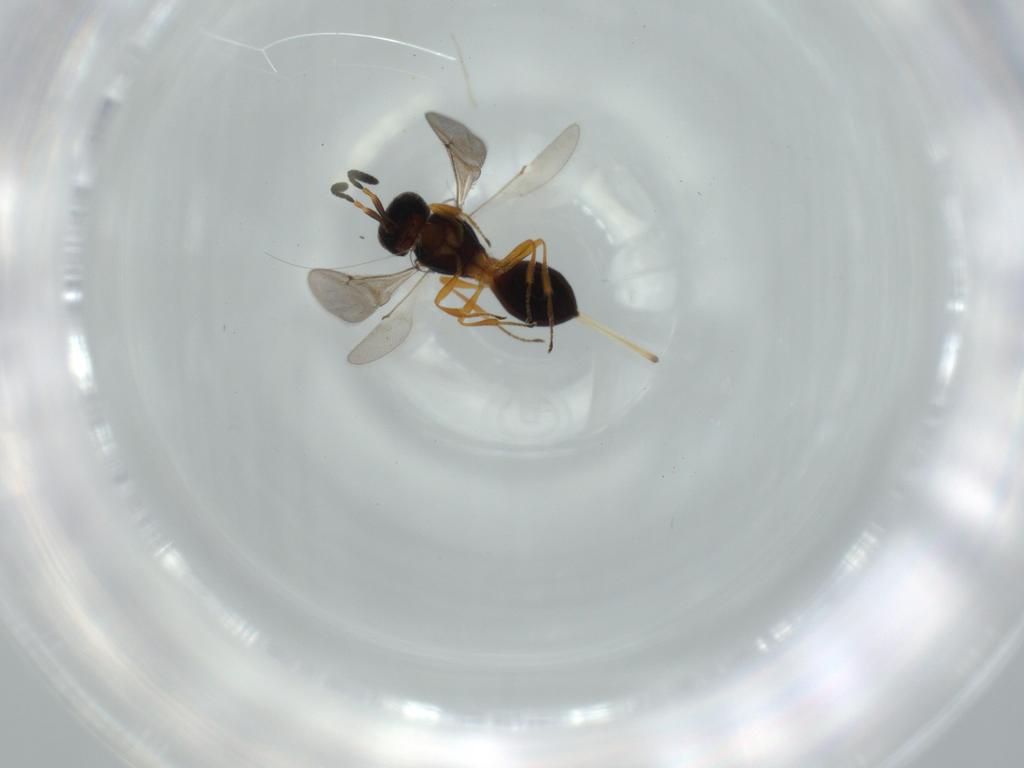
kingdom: Animalia
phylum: Arthropoda
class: Insecta
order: Hymenoptera
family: Scelionidae
